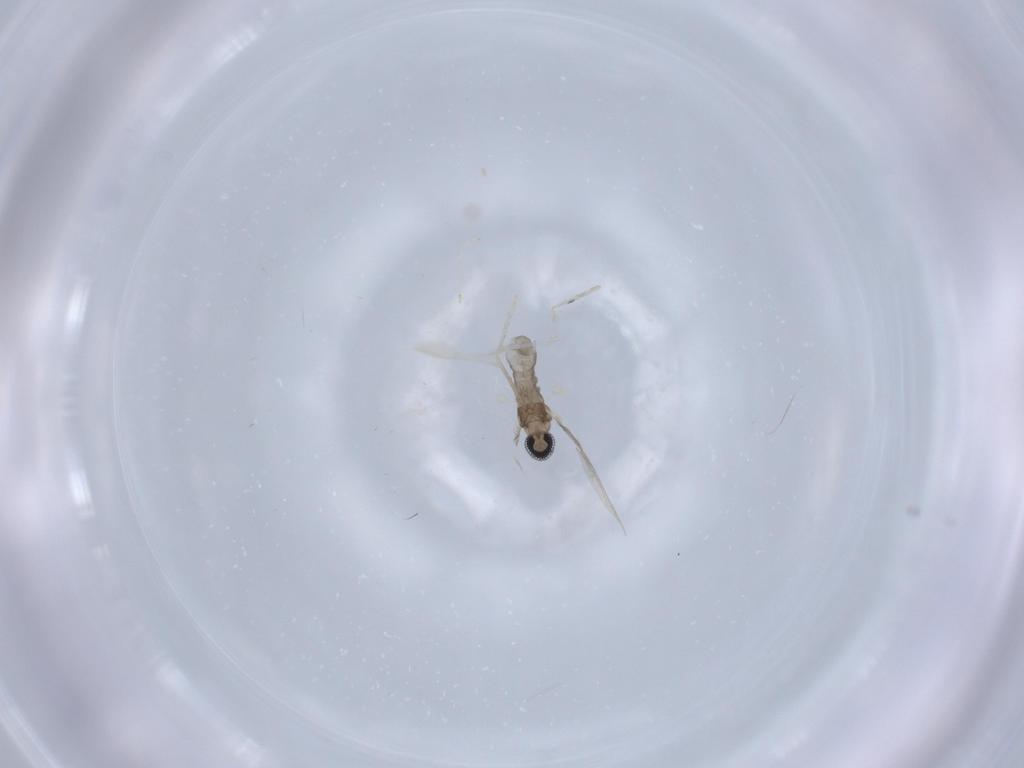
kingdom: Animalia
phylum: Arthropoda
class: Insecta
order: Diptera
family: Cecidomyiidae
